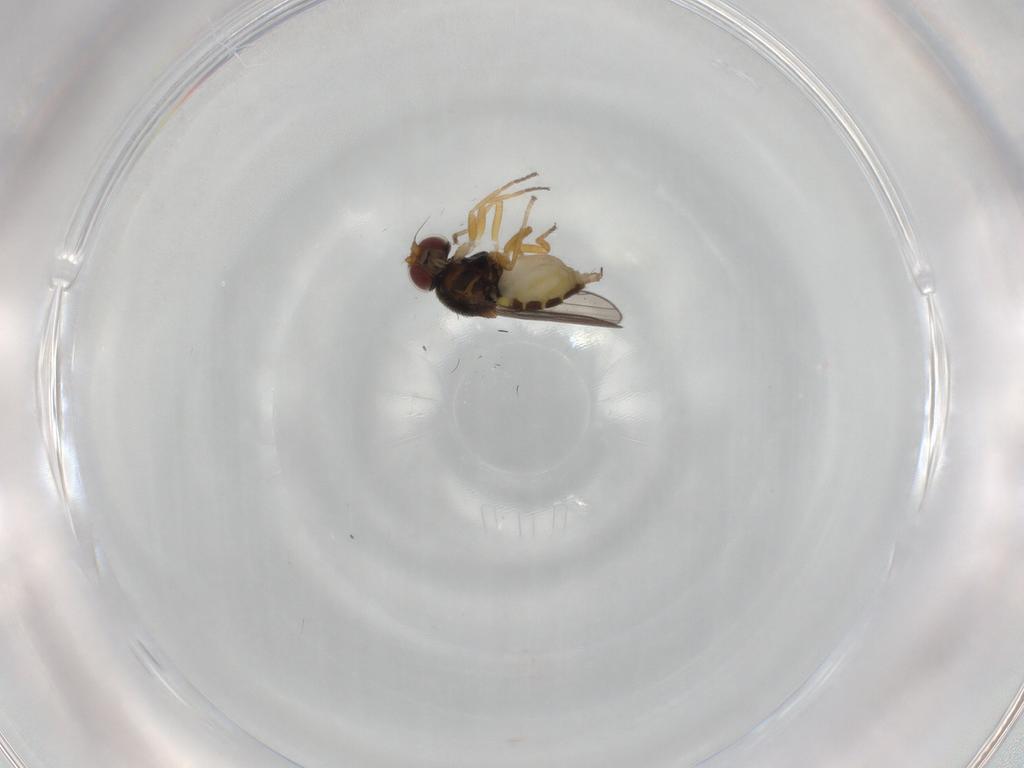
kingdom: Animalia
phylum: Arthropoda
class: Insecta
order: Diptera
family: Chloropidae
